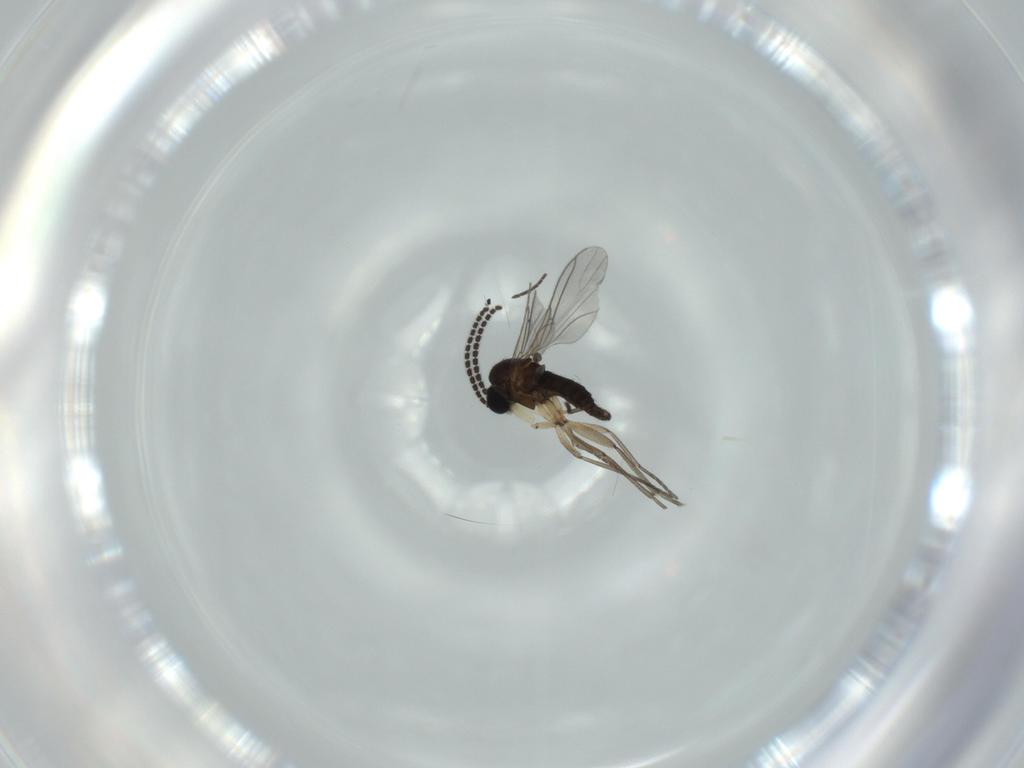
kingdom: Animalia
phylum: Arthropoda
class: Insecta
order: Diptera
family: Sciaridae
